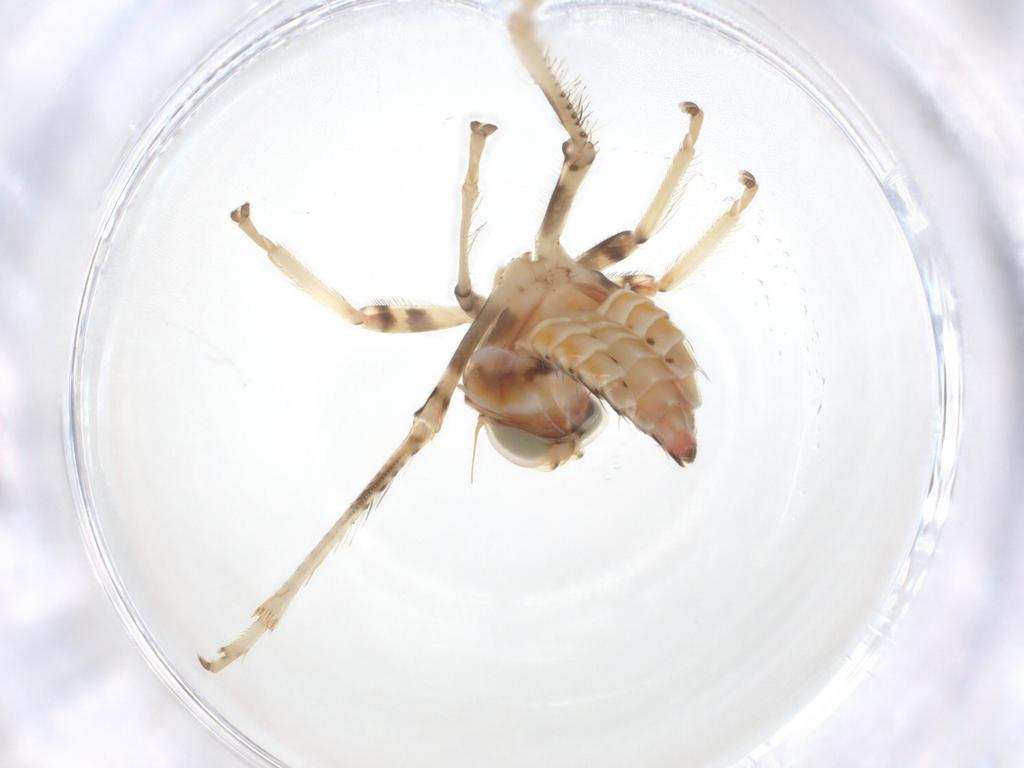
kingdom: Animalia
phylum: Arthropoda
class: Insecta
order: Hemiptera
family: Cicadellidae
